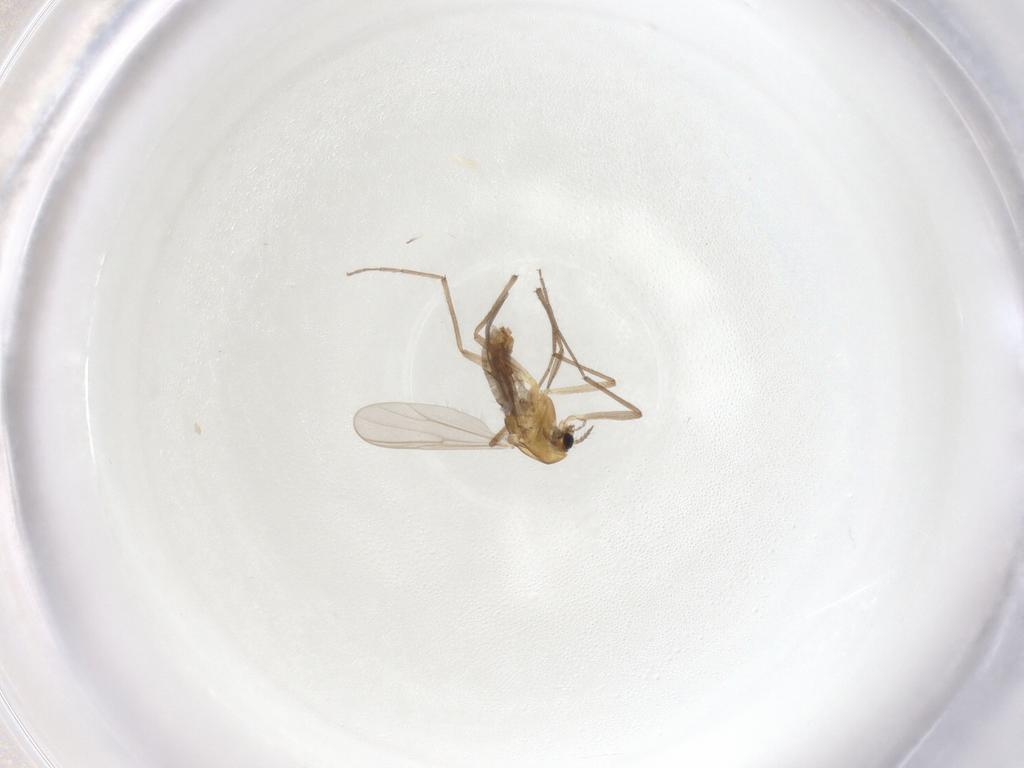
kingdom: Animalia
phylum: Arthropoda
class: Insecta
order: Diptera
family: Chironomidae
